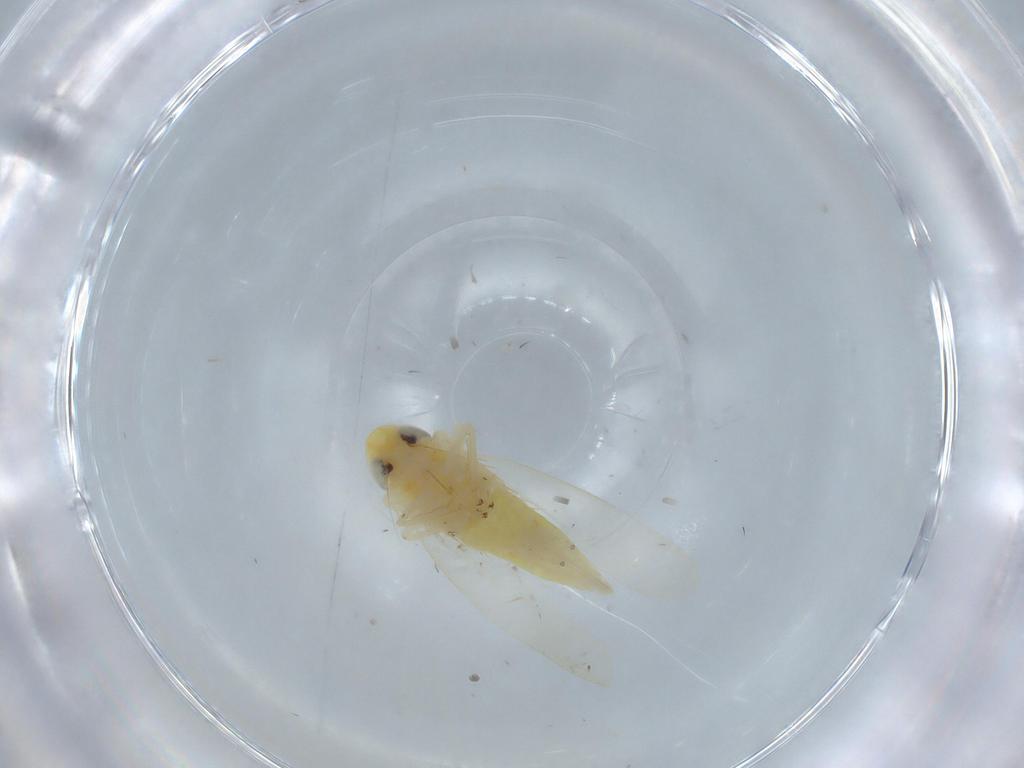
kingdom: Animalia
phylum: Arthropoda
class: Insecta
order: Hemiptera
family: Cicadellidae
